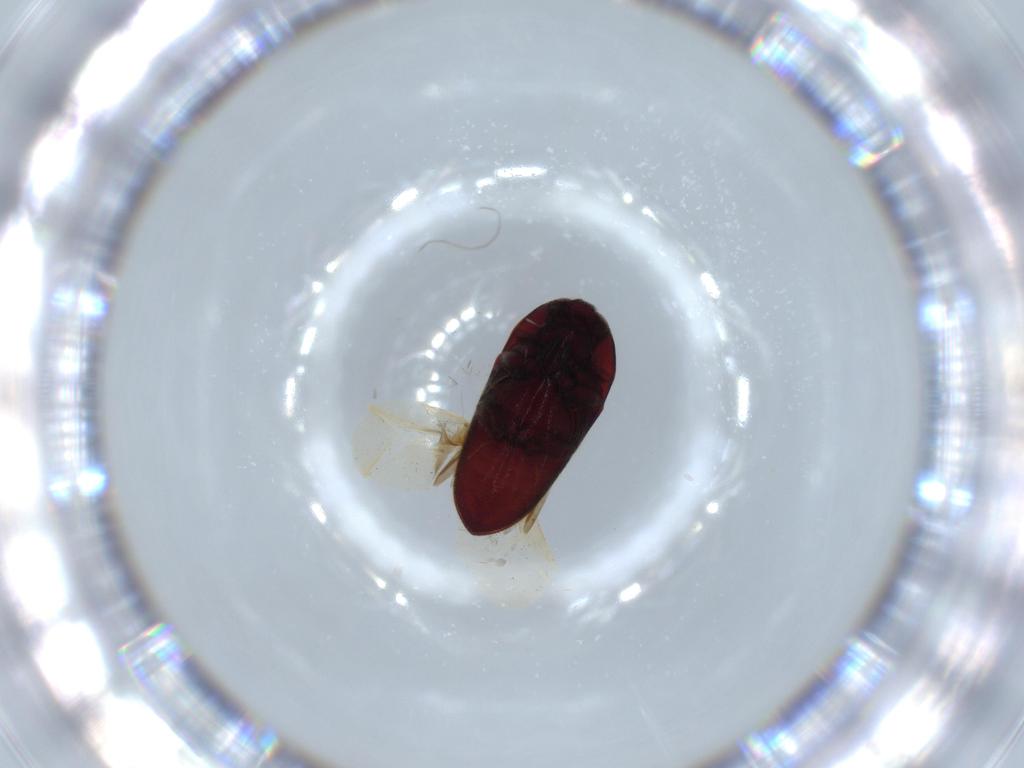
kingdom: Animalia
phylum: Arthropoda
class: Insecta
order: Coleoptera
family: Throscidae
